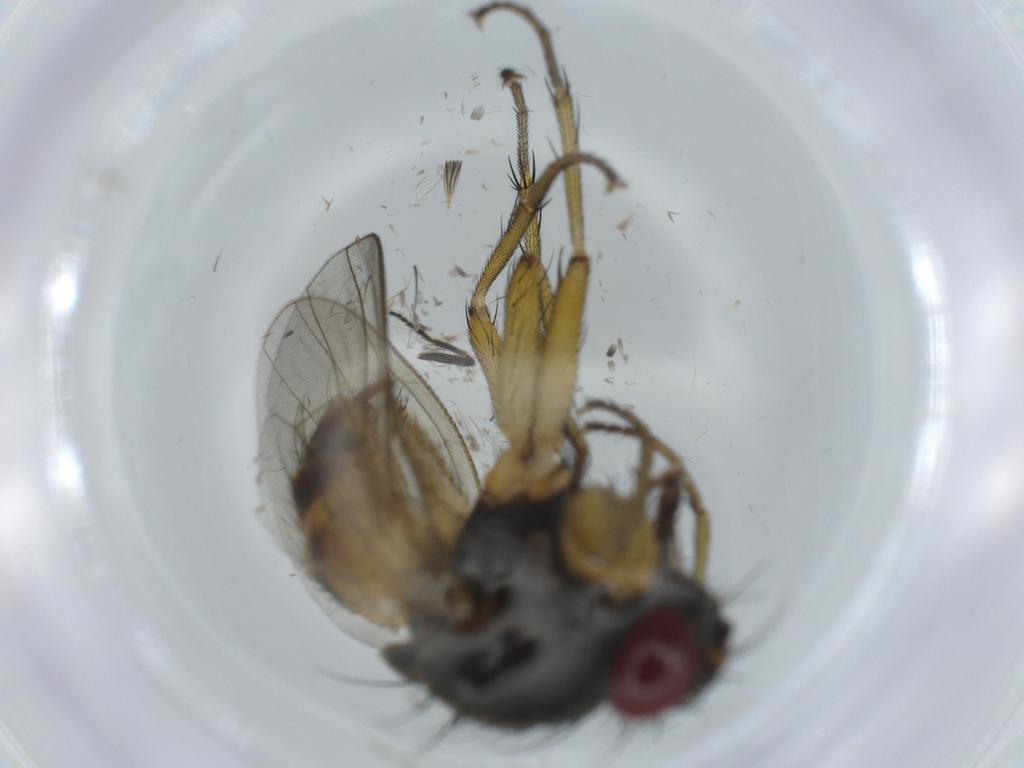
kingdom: Animalia
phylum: Arthropoda
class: Insecta
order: Diptera
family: Muscidae
